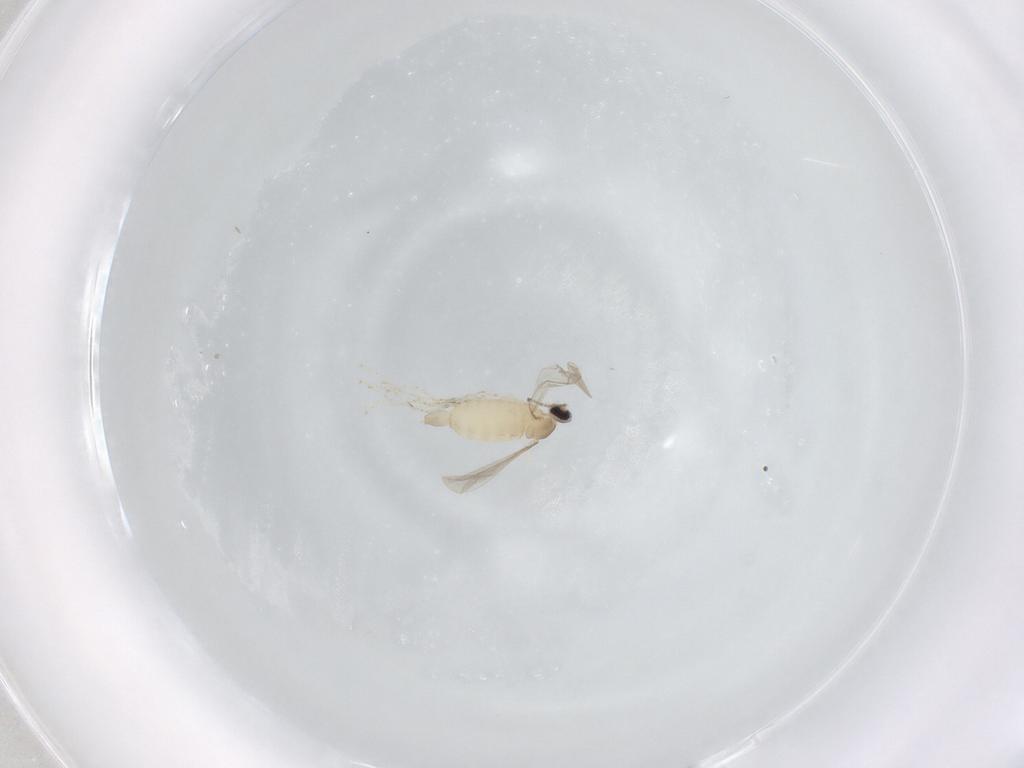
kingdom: Animalia
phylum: Arthropoda
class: Insecta
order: Diptera
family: Cecidomyiidae
